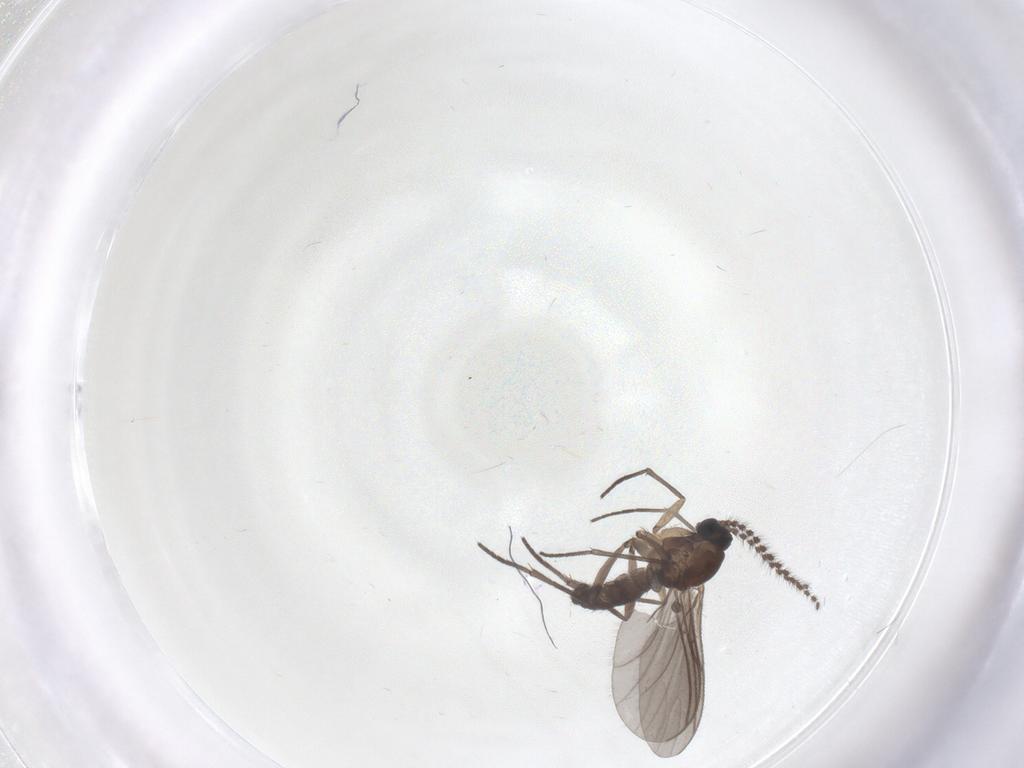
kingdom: Animalia
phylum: Arthropoda
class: Insecta
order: Diptera
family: Sciaridae
